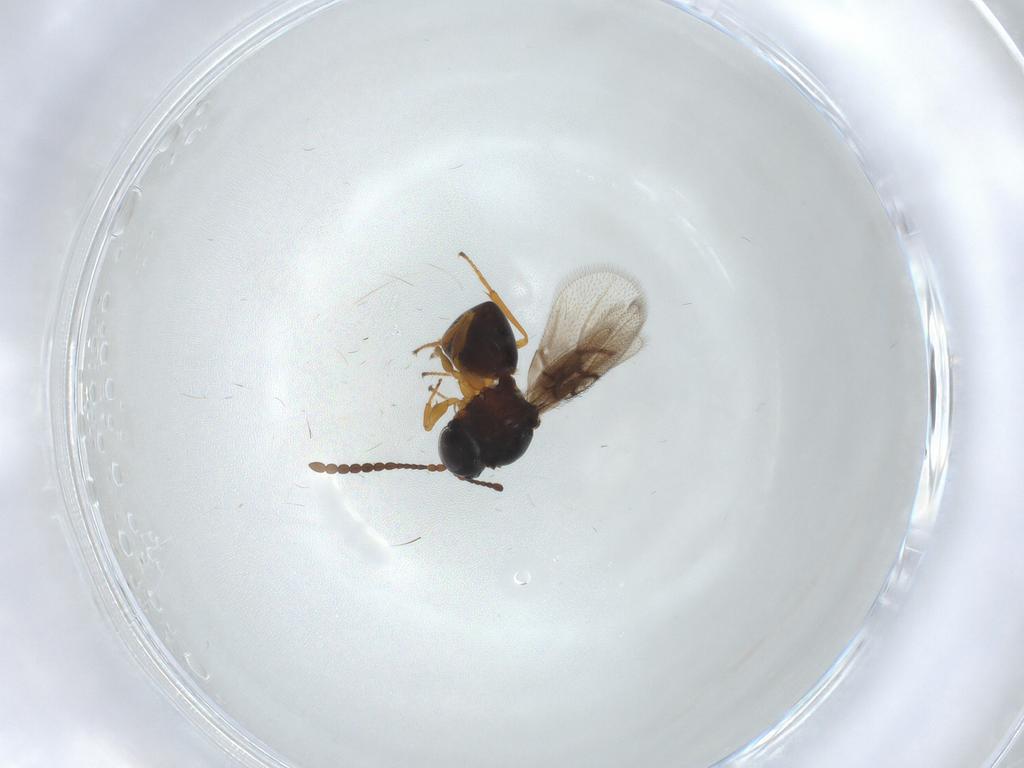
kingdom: Animalia
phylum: Arthropoda
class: Insecta
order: Hymenoptera
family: Figitidae
